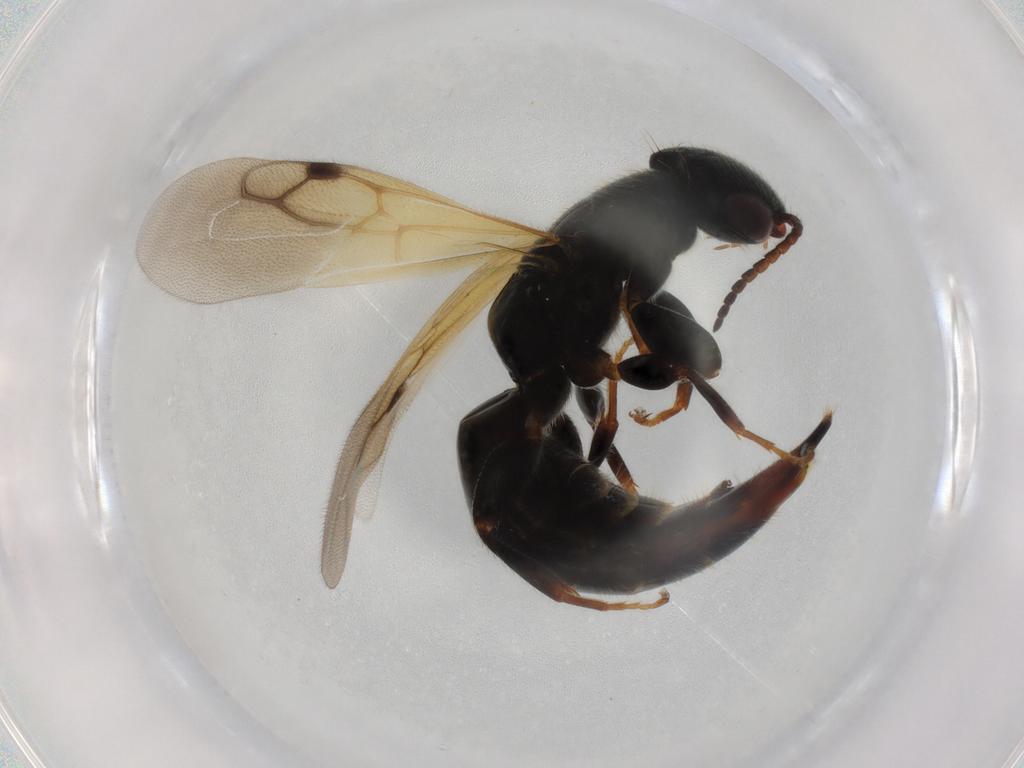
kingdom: Animalia
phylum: Arthropoda
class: Insecta
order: Hymenoptera
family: Bethylidae
